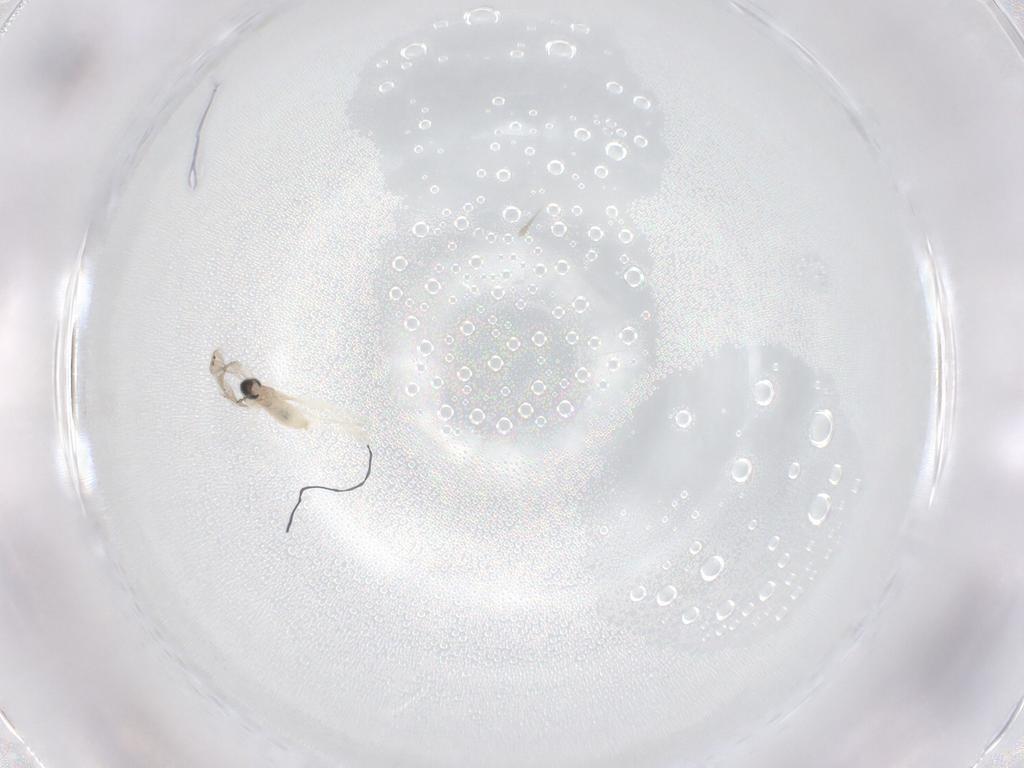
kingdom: Animalia
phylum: Arthropoda
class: Insecta
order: Diptera
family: Cecidomyiidae
